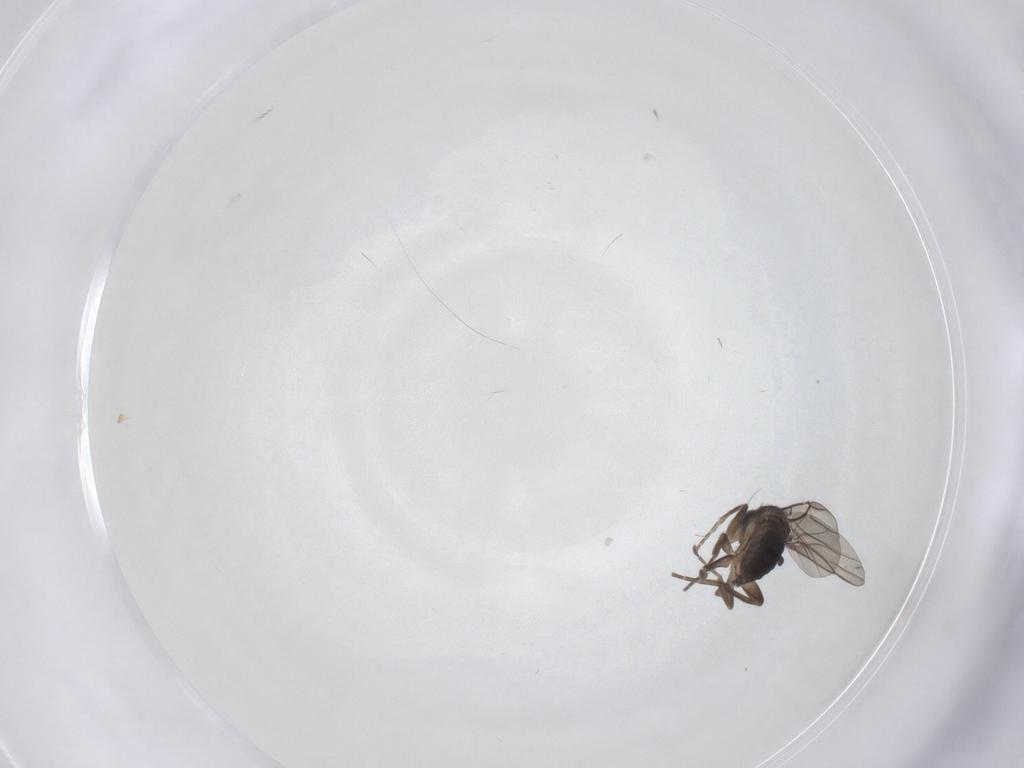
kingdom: Animalia
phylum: Arthropoda
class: Insecta
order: Diptera
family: Phoridae
